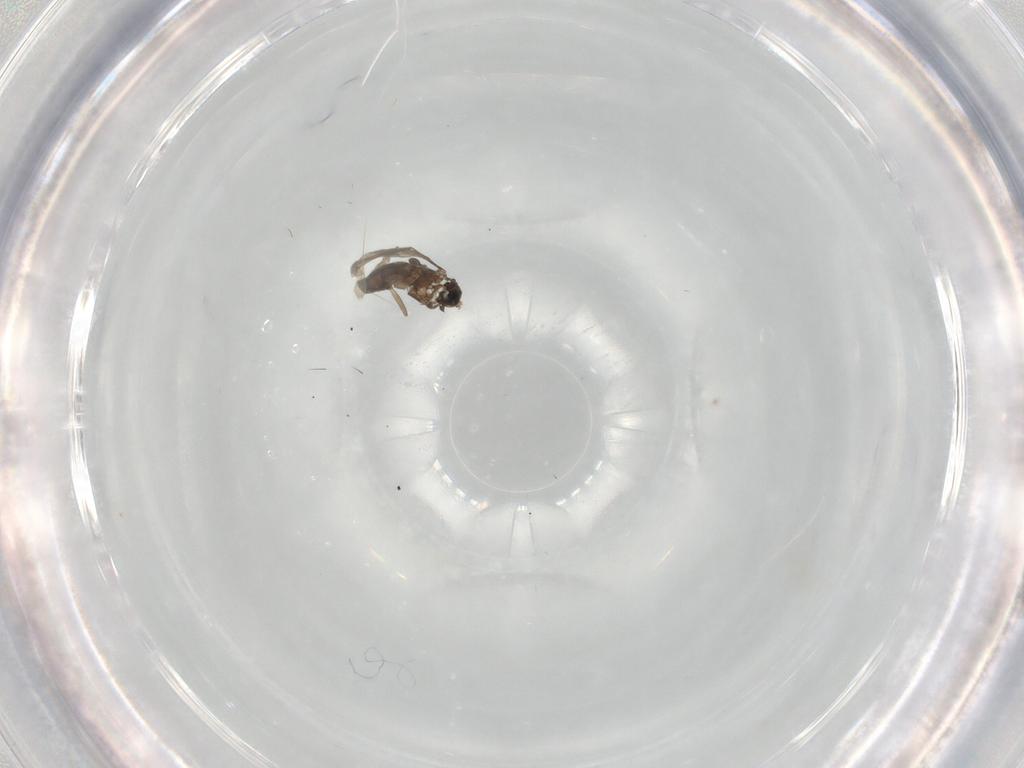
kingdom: Animalia
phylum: Arthropoda
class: Insecta
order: Diptera
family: Sciaridae
